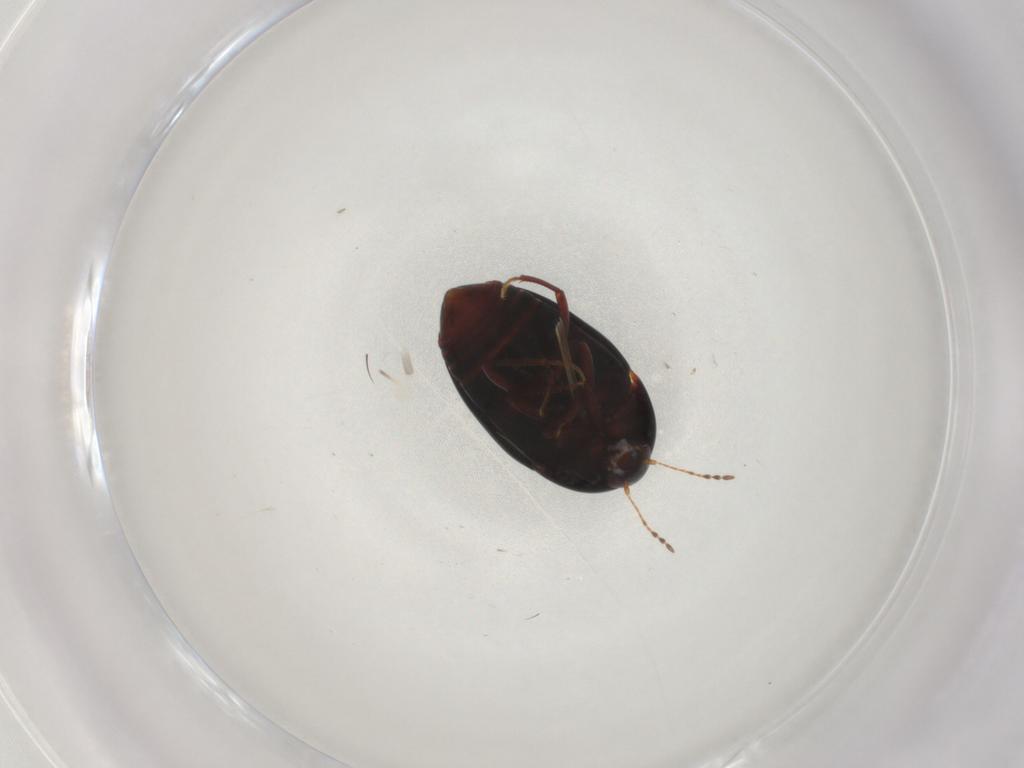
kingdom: Animalia
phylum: Arthropoda
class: Insecta
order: Coleoptera
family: Staphylinidae
